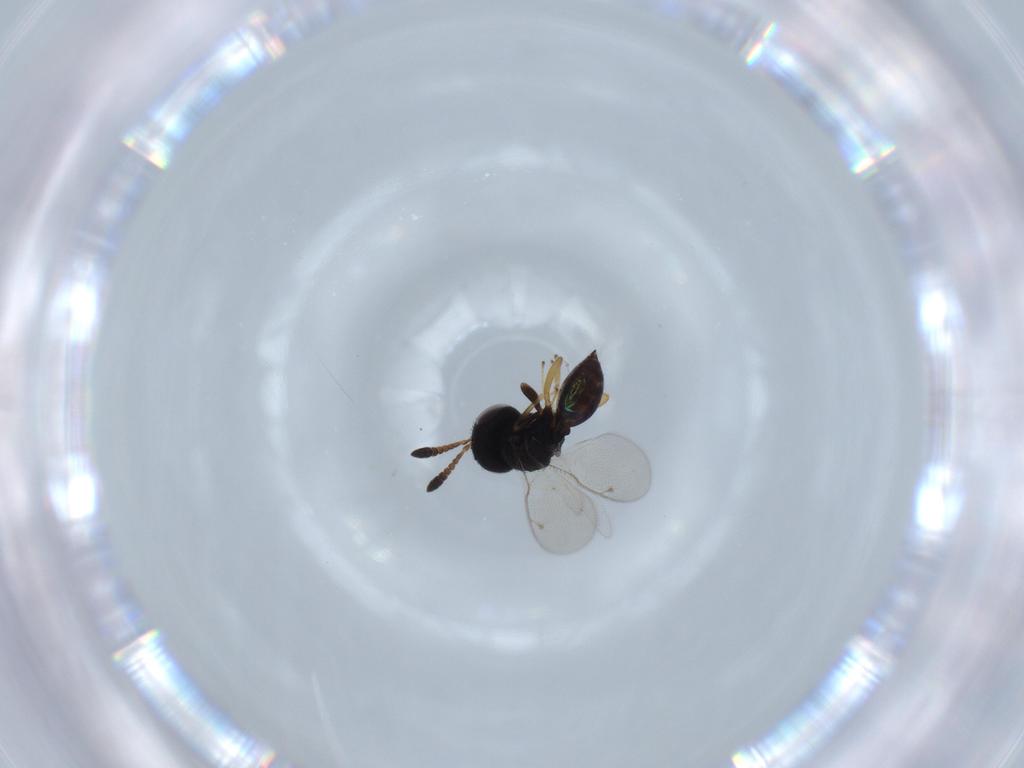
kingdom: Animalia
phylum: Arthropoda
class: Insecta
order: Hymenoptera
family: Pteromalidae
